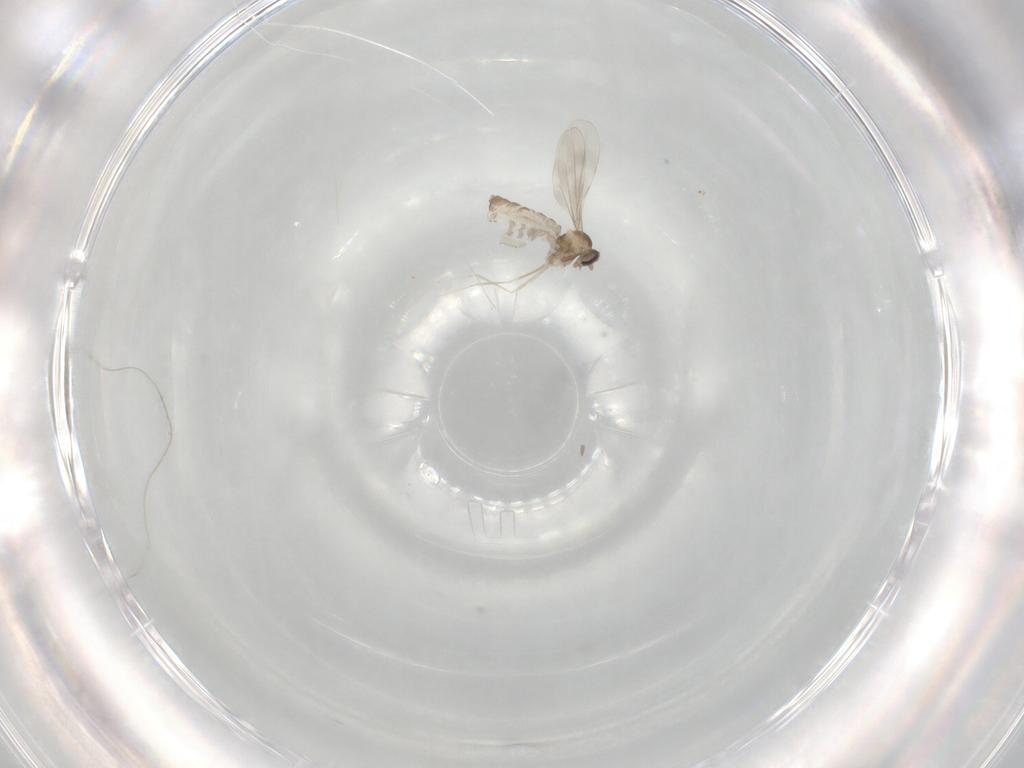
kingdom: Animalia
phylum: Arthropoda
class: Insecta
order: Diptera
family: Cecidomyiidae
